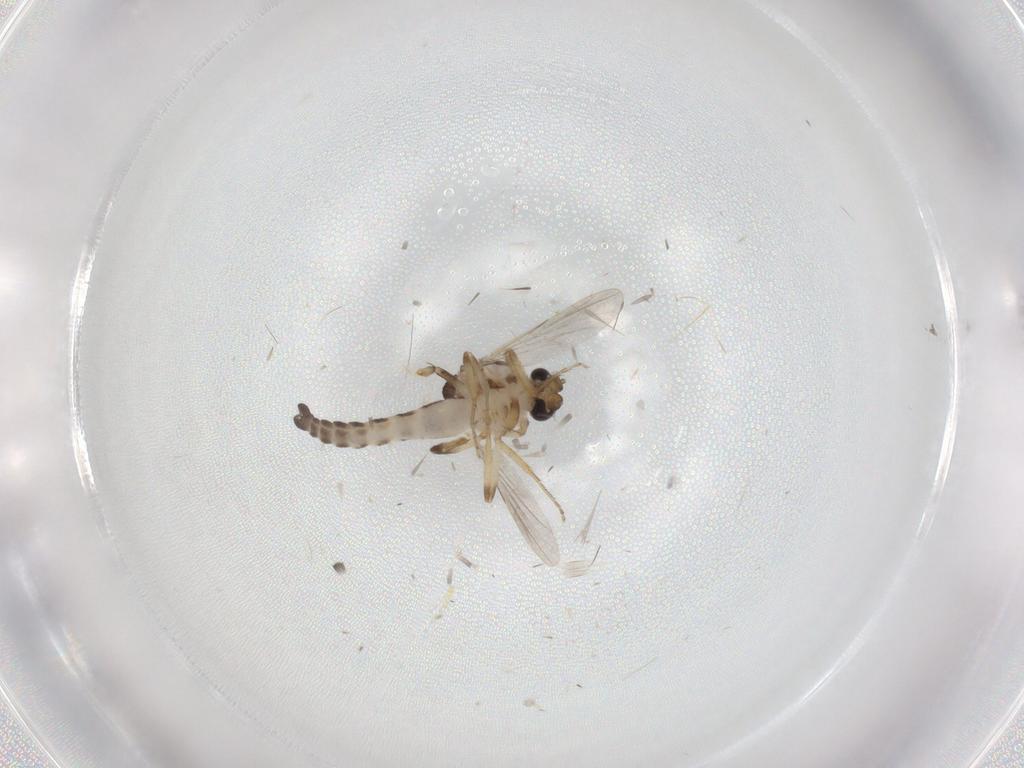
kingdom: Animalia
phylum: Arthropoda
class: Insecta
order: Diptera
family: Ceratopogonidae
